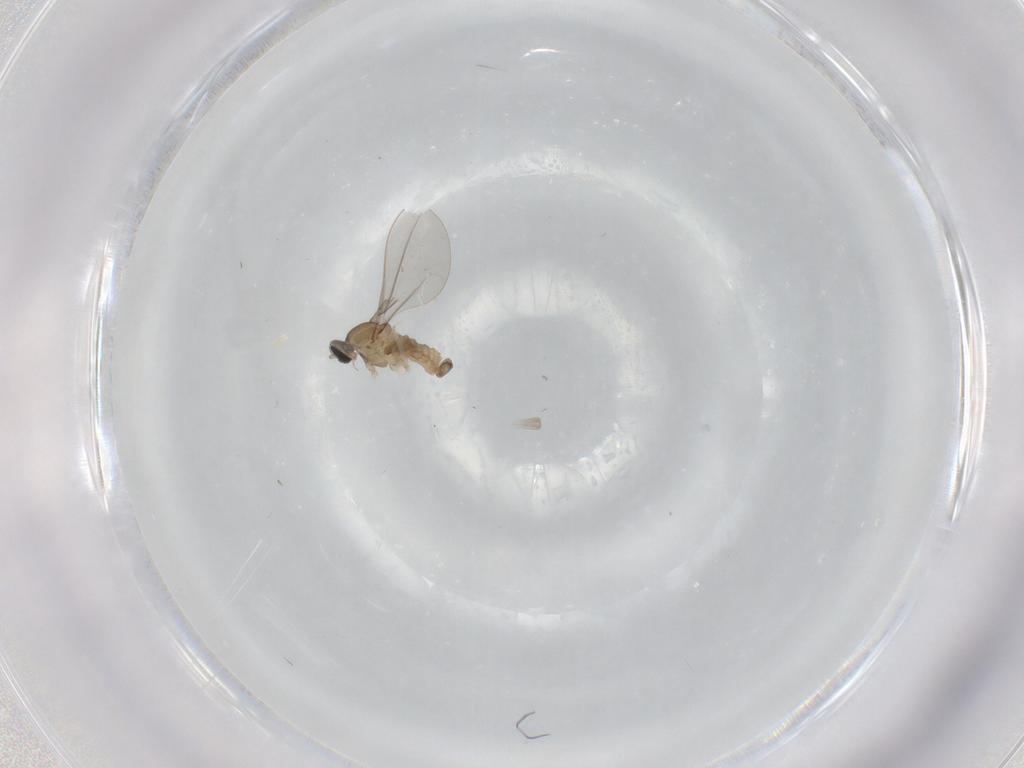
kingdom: Animalia
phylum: Arthropoda
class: Insecta
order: Diptera
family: Cecidomyiidae
